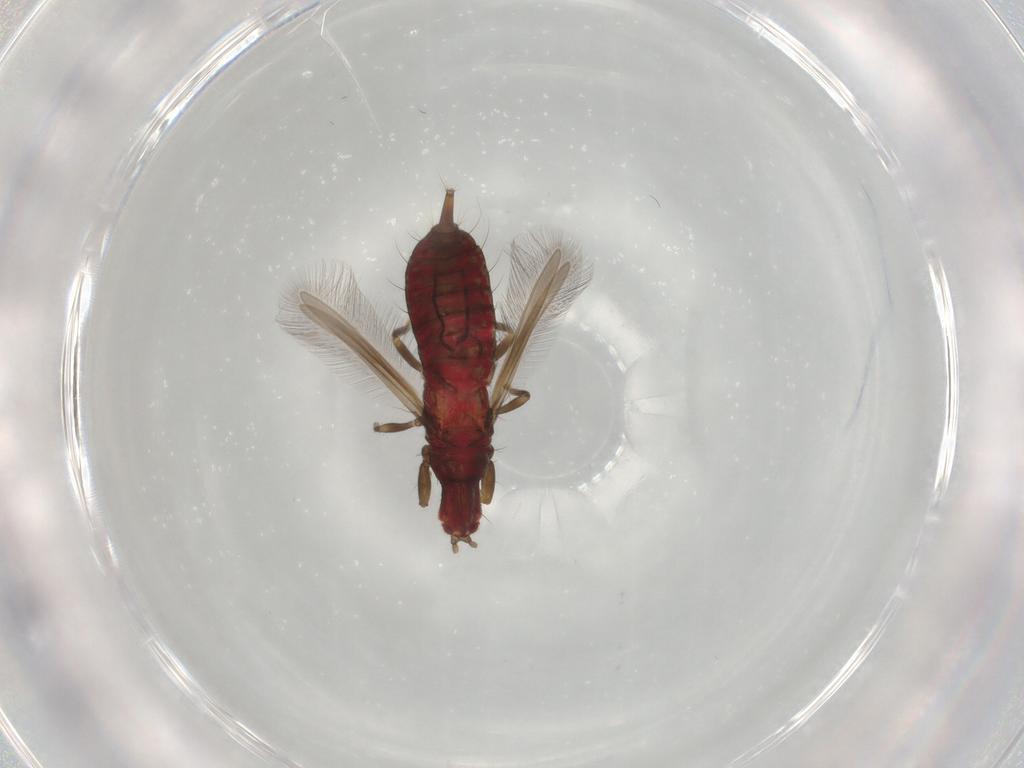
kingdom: Animalia
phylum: Arthropoda
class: Insecta
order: Thysanoptera
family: Phlaeothripidae
